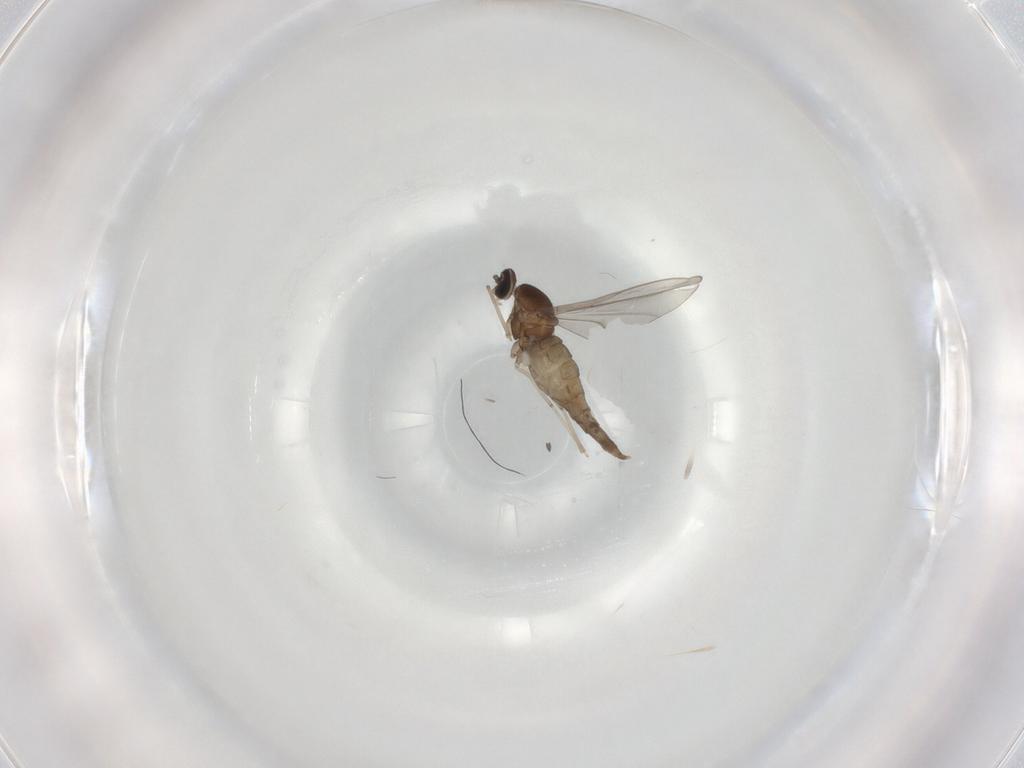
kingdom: Animalia
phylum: Arthropoda
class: Insecta
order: Diptera
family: Cecidomyiidae
